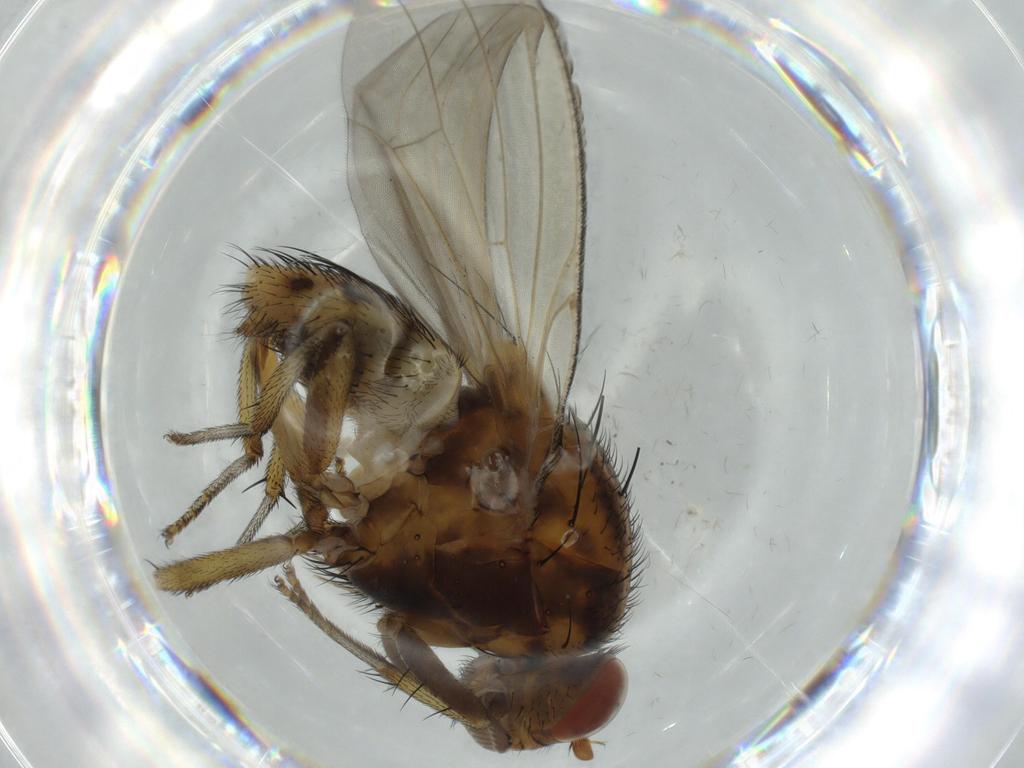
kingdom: Animalia
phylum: Arthropoda
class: Insecta
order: Diptera
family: Chironomidae
